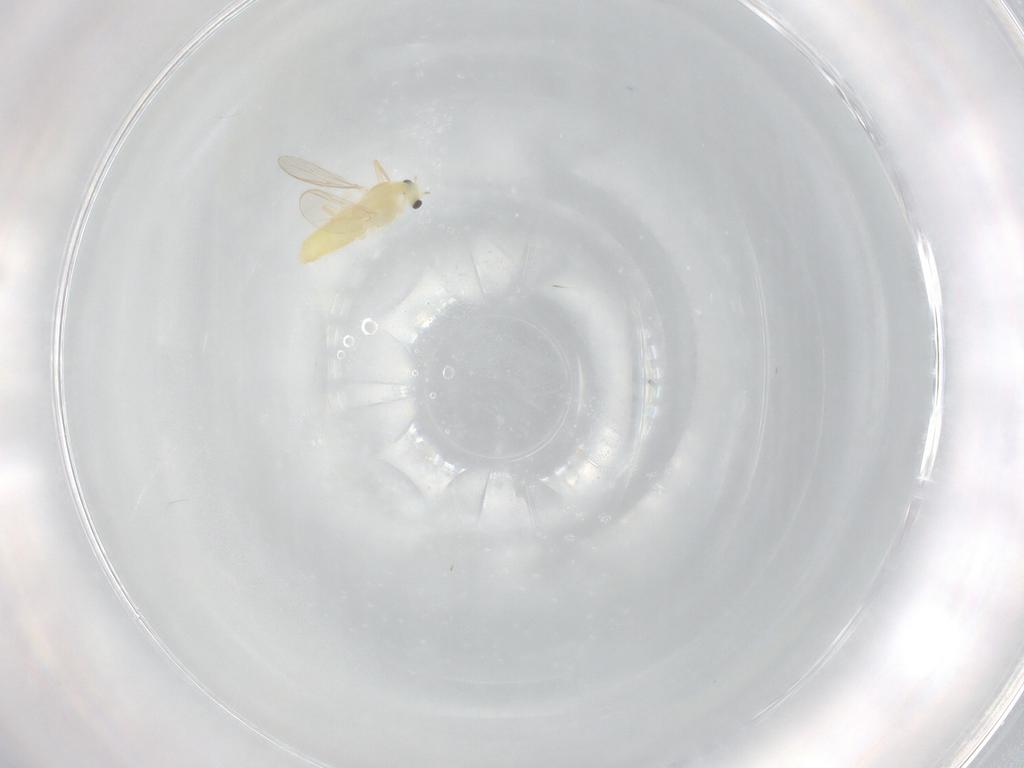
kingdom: Animalia
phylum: Arthropoda
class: Insecta
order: Diptera
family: Chironomidae
